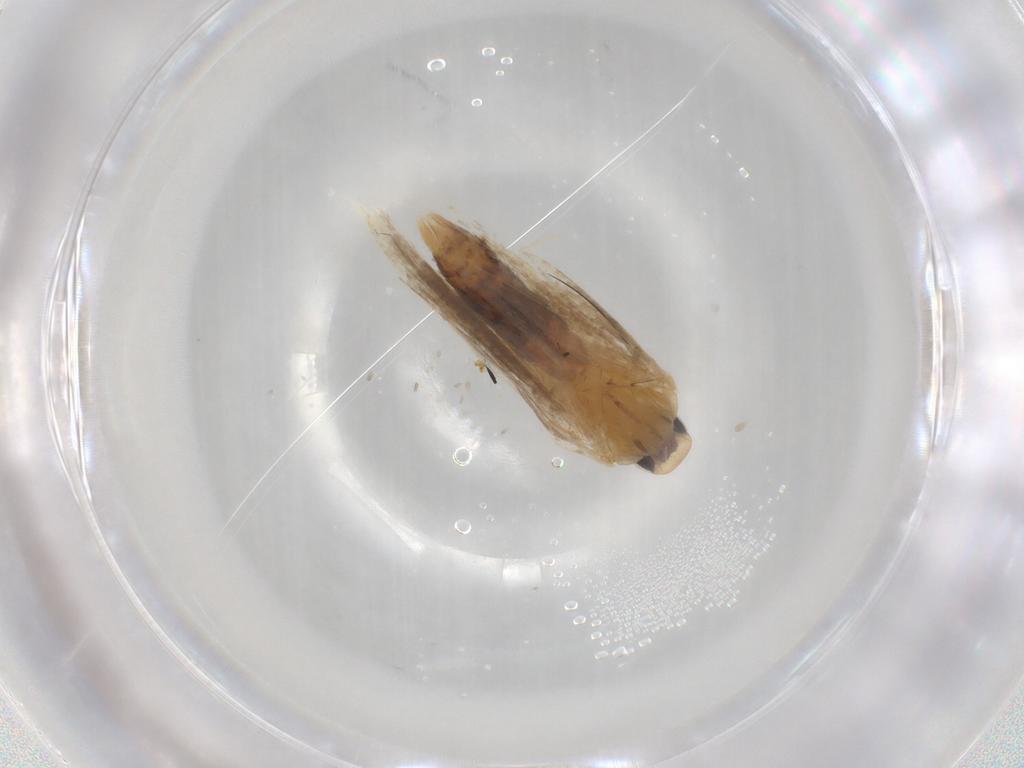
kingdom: Animalia
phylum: Arthropoda
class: Insecta
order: Lepidoptera
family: Gelechiidae
